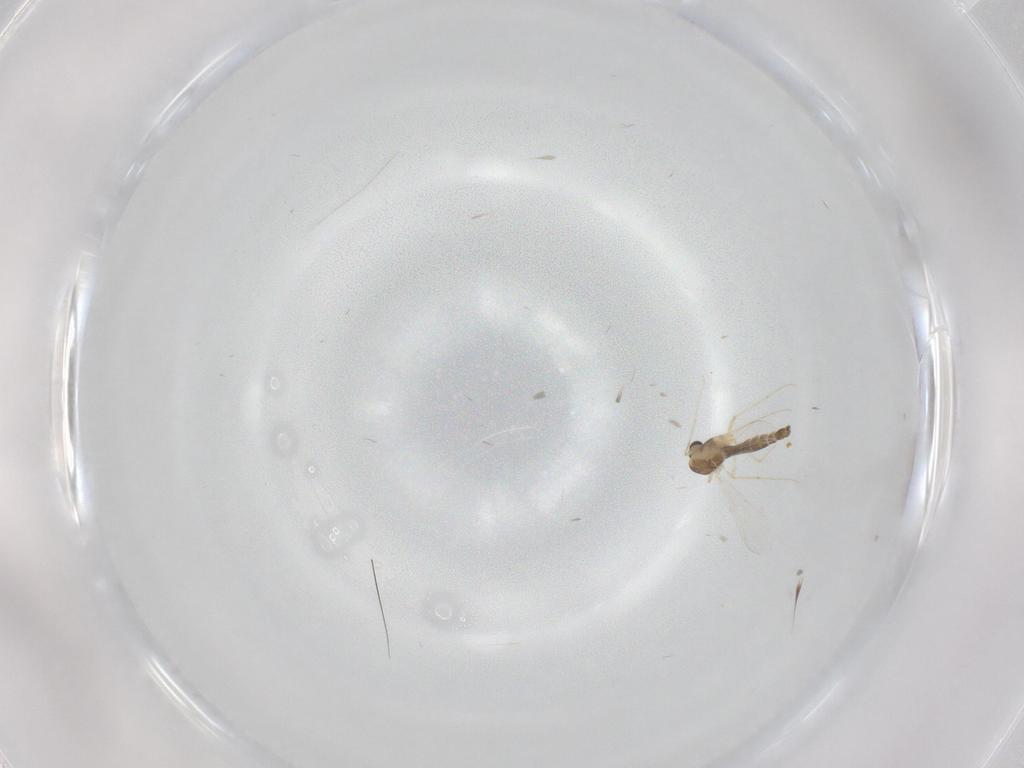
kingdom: Animalia
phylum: Arthropoda
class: Insecta
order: Diptera
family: Chironomidae
